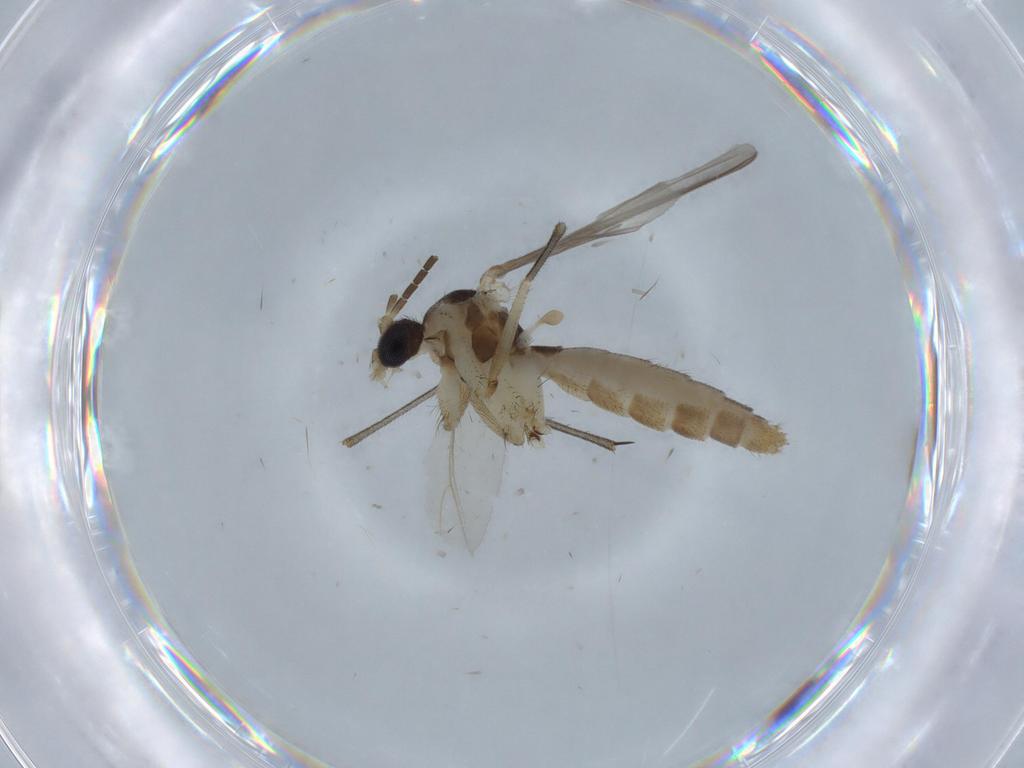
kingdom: Animalia
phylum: Arthropoda
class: Insecta
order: Diptera
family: Mycetophilidae
